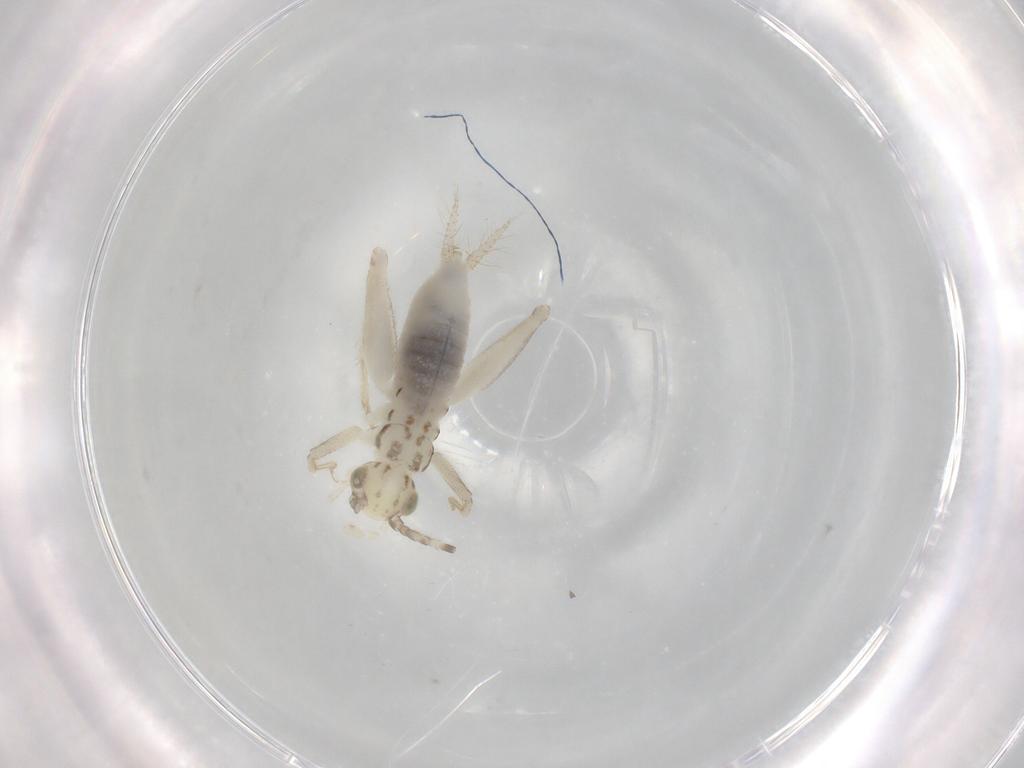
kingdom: Animalia
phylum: Arthropoda
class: Insecta
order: Orthoptera
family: Trigonidiidae
